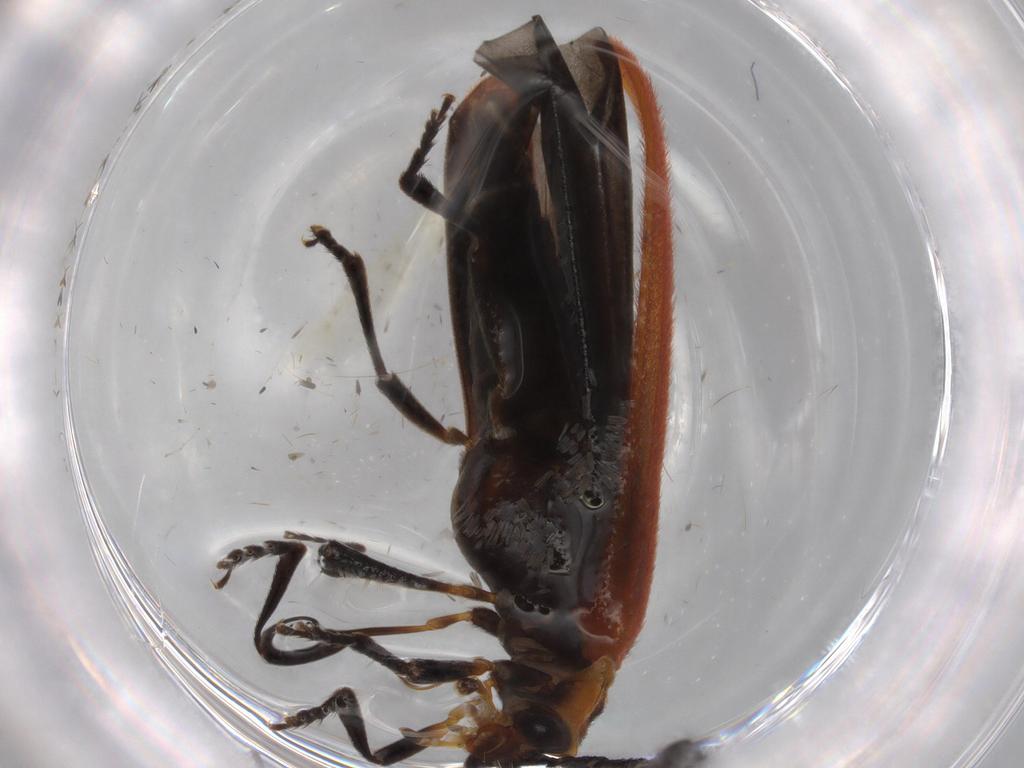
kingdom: Animalia
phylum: Arthropoda
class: Insecta
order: Coleoptera
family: Lycidae
